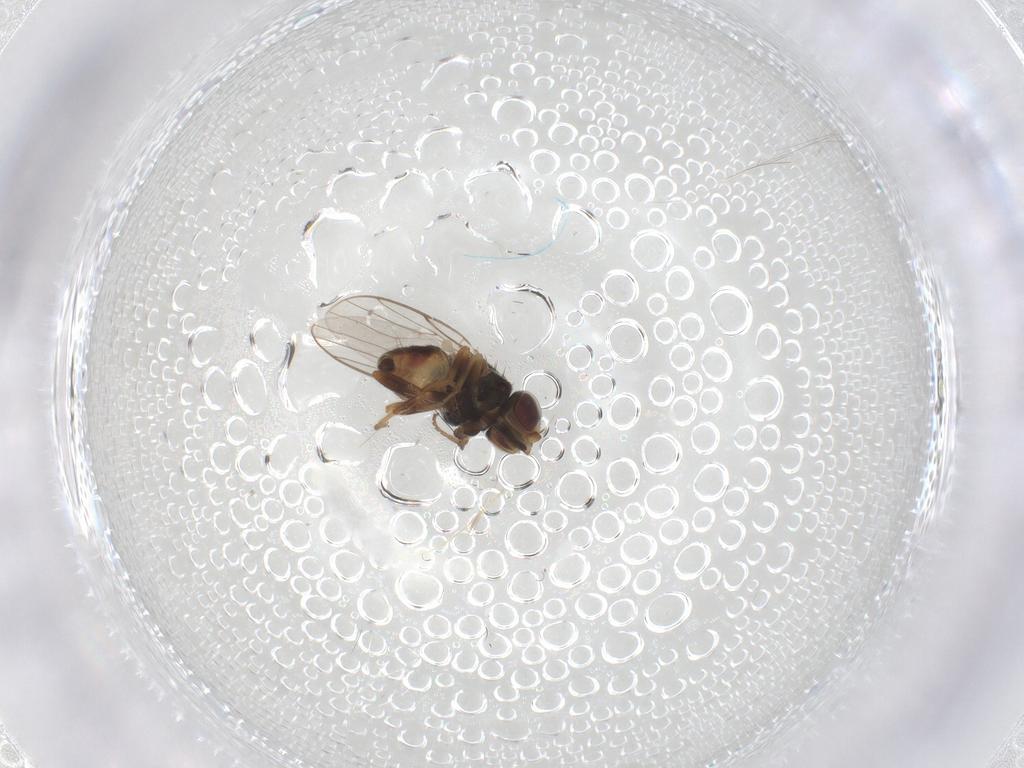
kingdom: Animalia
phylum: Arthropoda
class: Insecta
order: Diptera
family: Chloropidae
